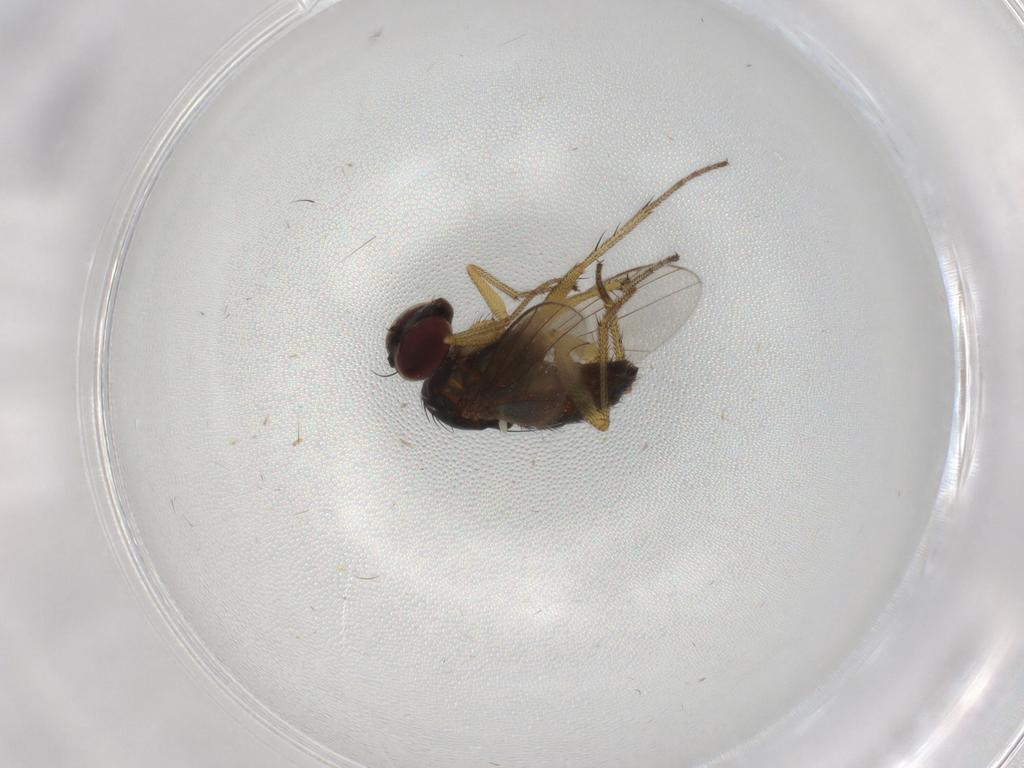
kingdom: Animalia
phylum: Arthropoda
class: Insecta
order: Diptera
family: Dolichopodidae
